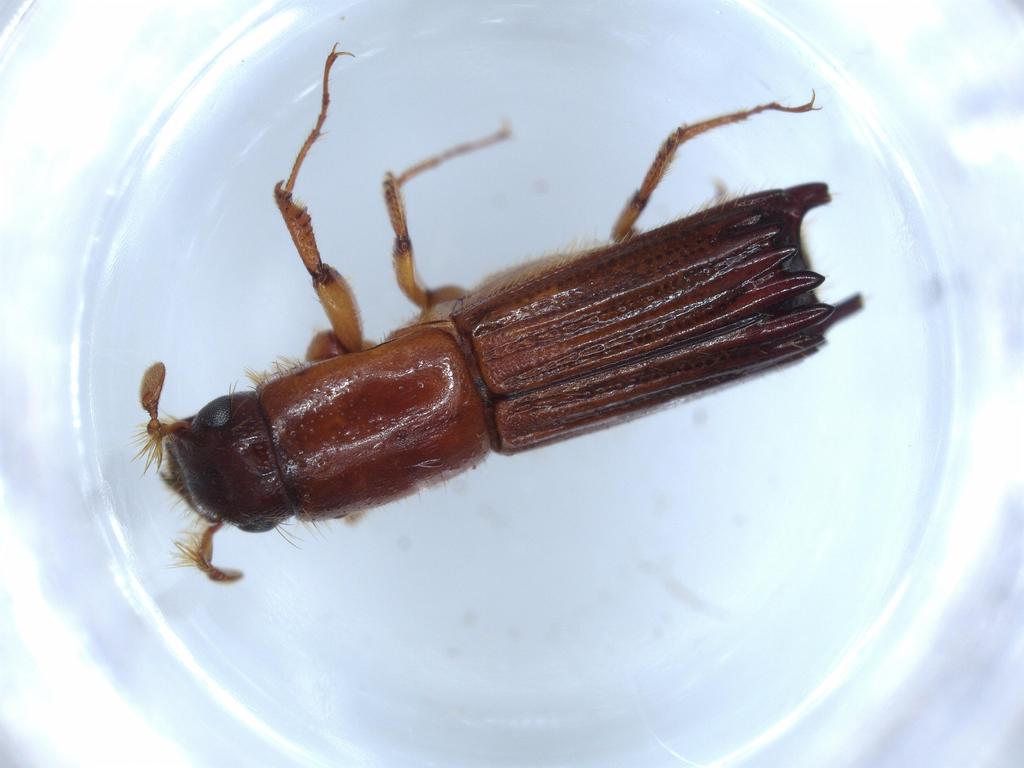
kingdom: Animalia
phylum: Arthropoda
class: Insecta
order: Coleoptera
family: Curculionidae
